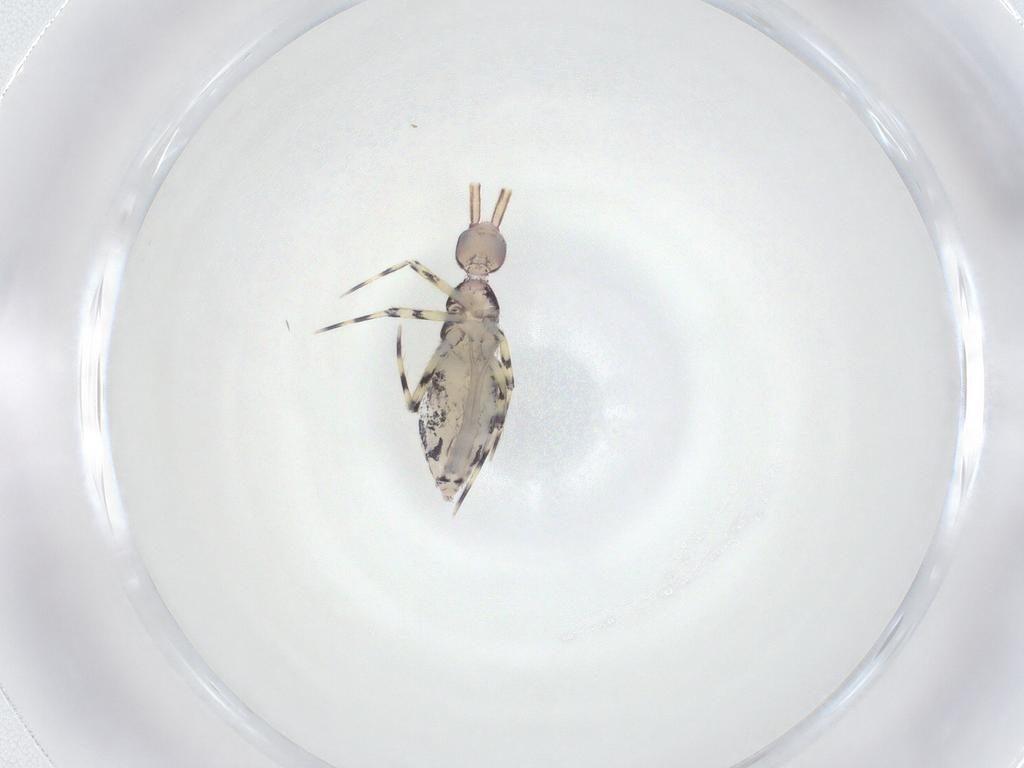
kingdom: Animalia
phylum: Arthropoda
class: Collembola
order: Entomobryomorpha
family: Entomobryidae
